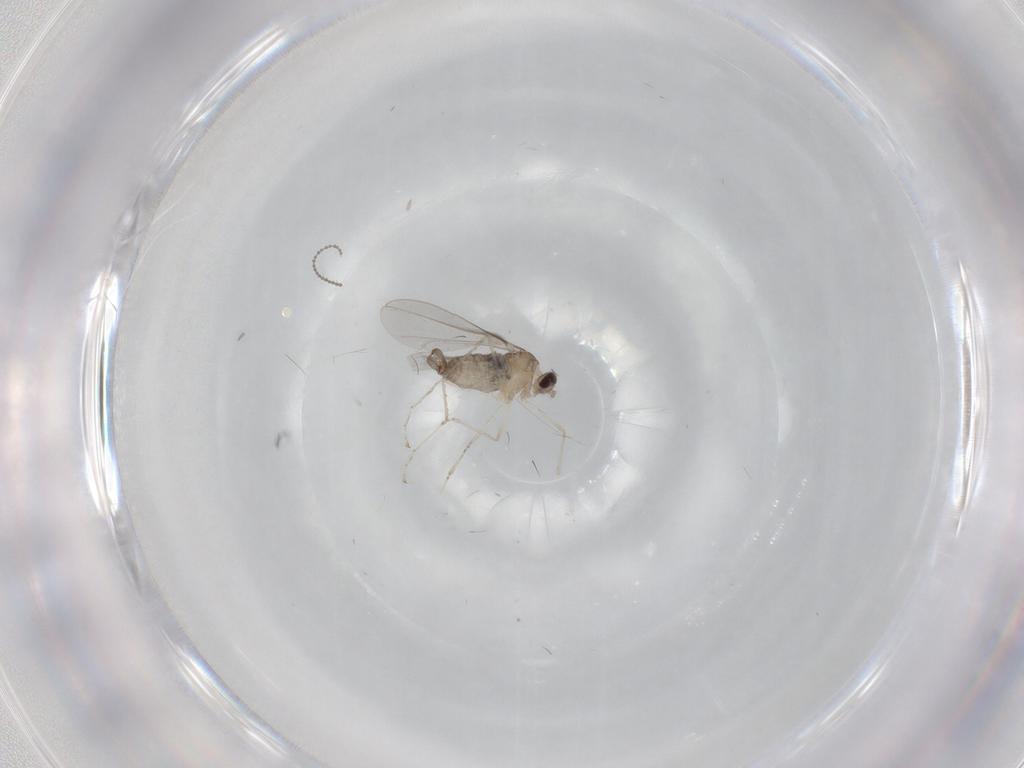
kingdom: Animalia
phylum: Arthropoda
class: Insecta
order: Diptera
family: Cecidomyiidae
